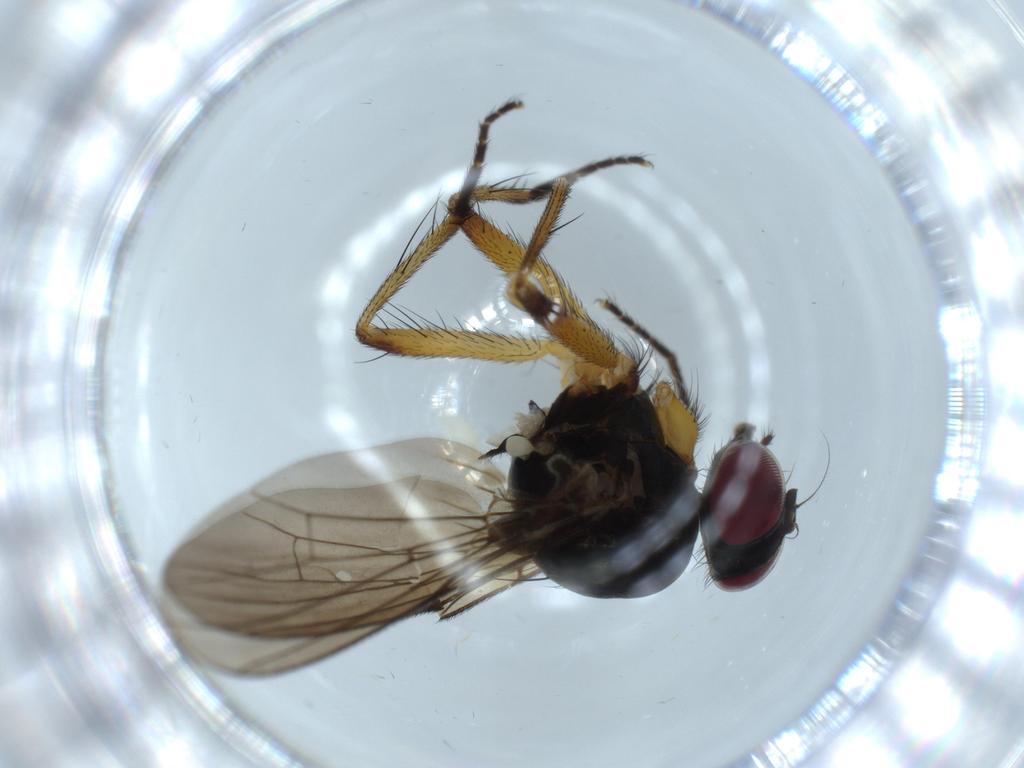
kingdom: Animalia
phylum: Arthropoda
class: Insecta
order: Diptera
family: Muscidae
